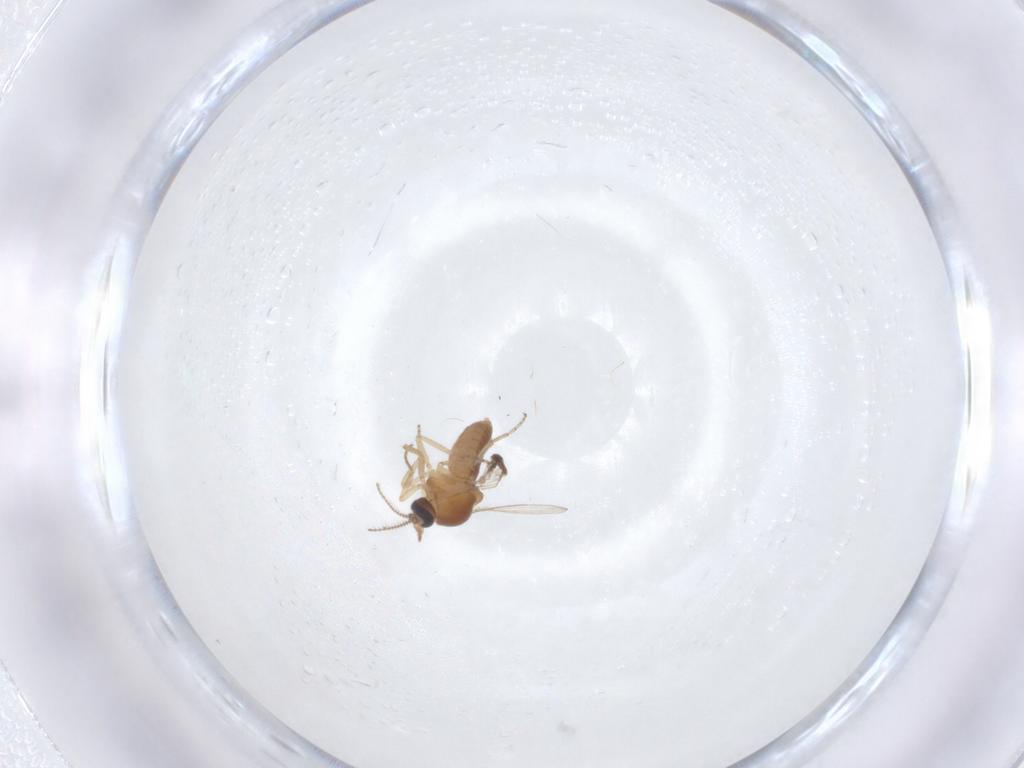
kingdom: Animalia
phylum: Arthropoda
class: Insecta
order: Diptera
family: Ceratopogonidae
